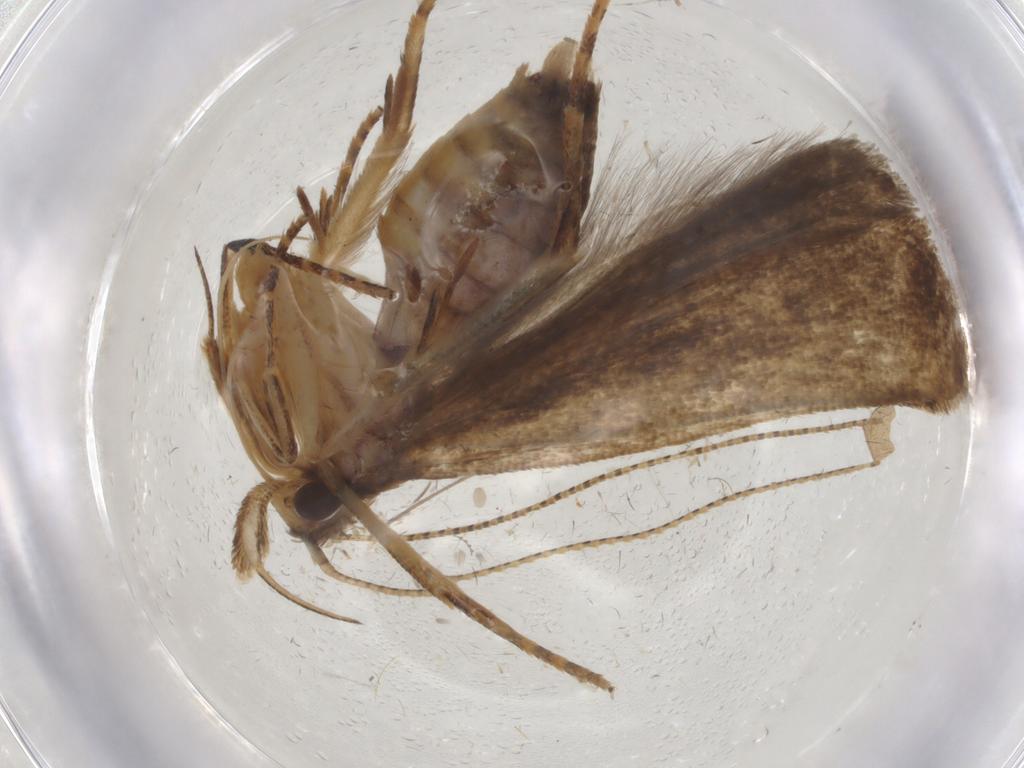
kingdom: Animalia
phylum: Arthropoda
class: Insecta
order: Lepidoptera
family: Gelechiidae
